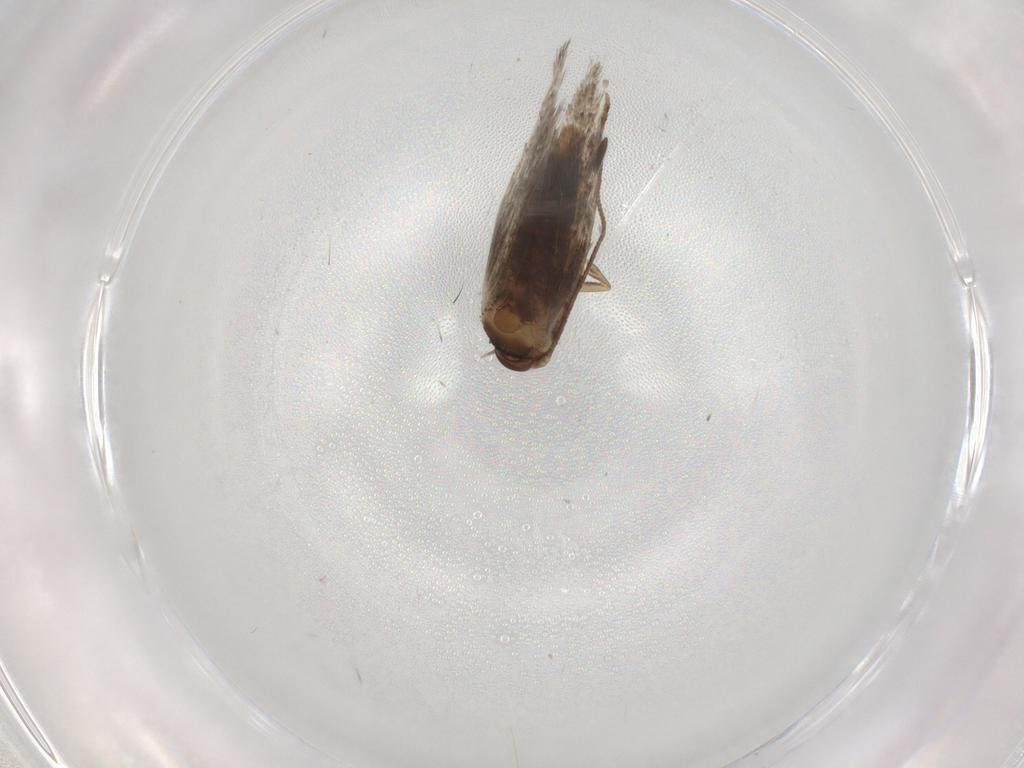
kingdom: Animalia
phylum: Arthropoda
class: Insecta
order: Lepidoptera
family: Elachistidae
